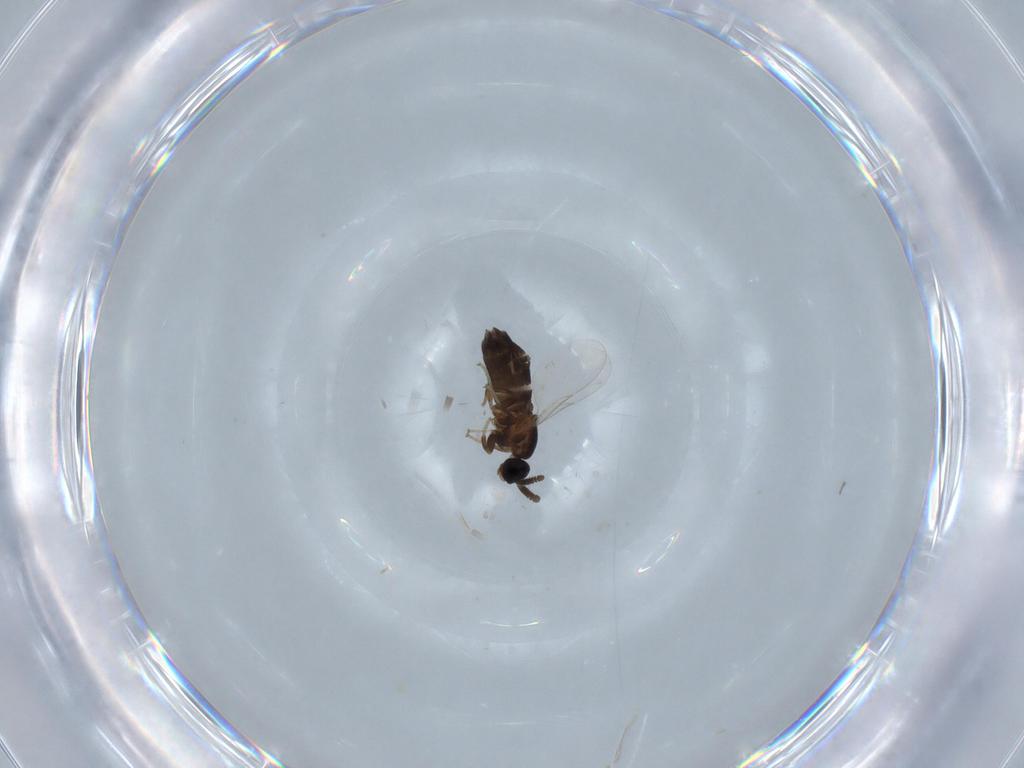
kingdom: Animalia
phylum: Arthropoda
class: Insecta
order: Diptera
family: Scatopsidae
